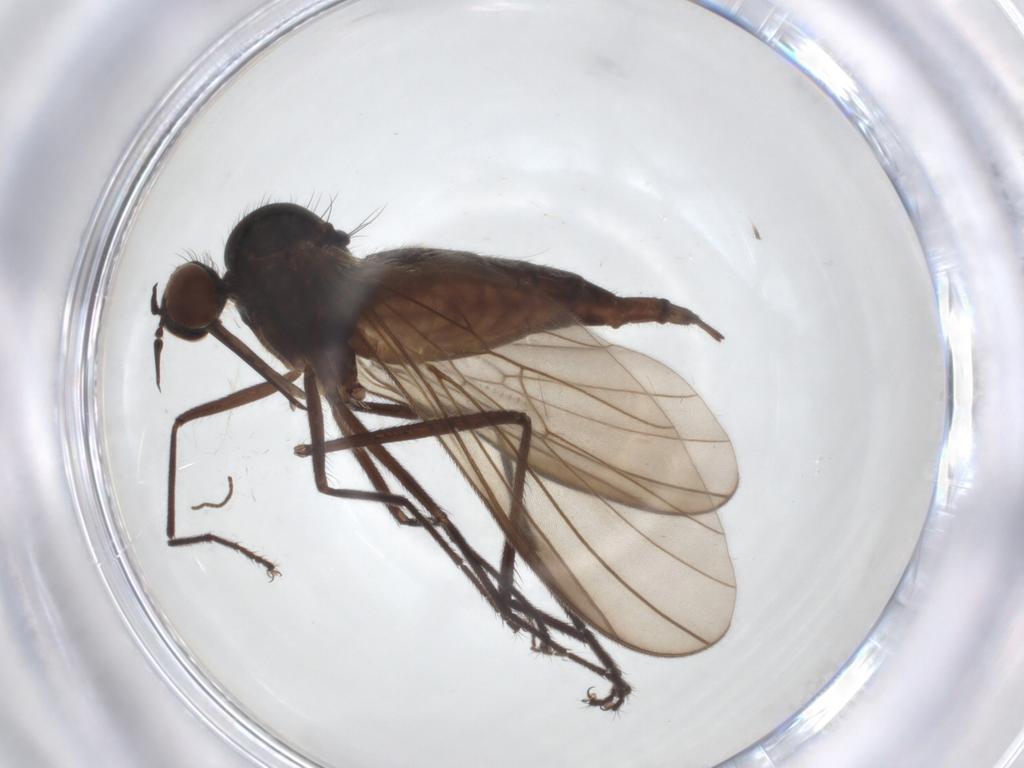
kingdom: Animalia
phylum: Arthropoda
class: Insecta
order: Diptera
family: Empididae
